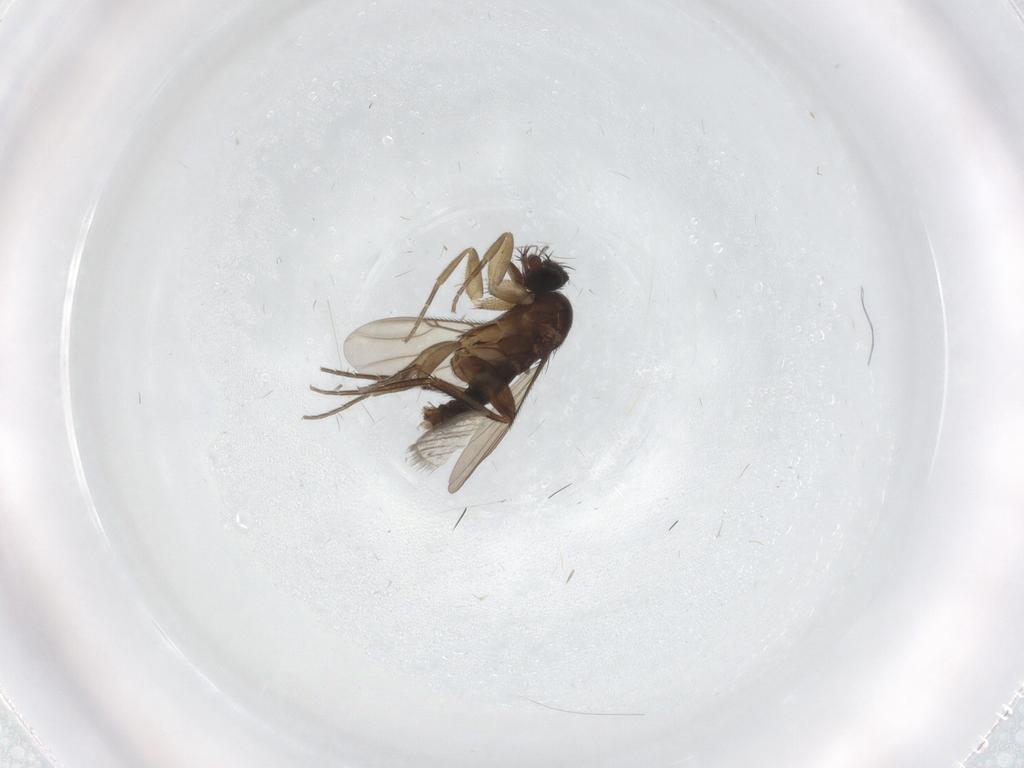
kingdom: Animalia
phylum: Arthropoda
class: Insecta
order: Diptera
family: Phoridae
